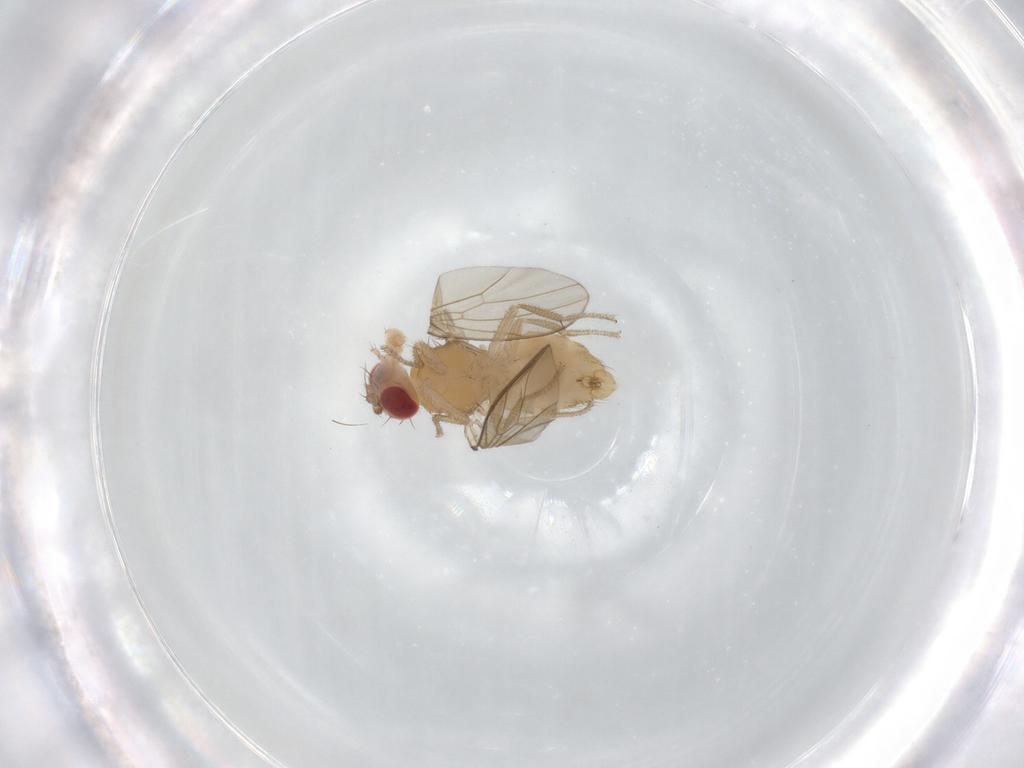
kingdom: Animalia
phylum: Arthropoda
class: Insecta
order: Diptera
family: Drosophilidae
